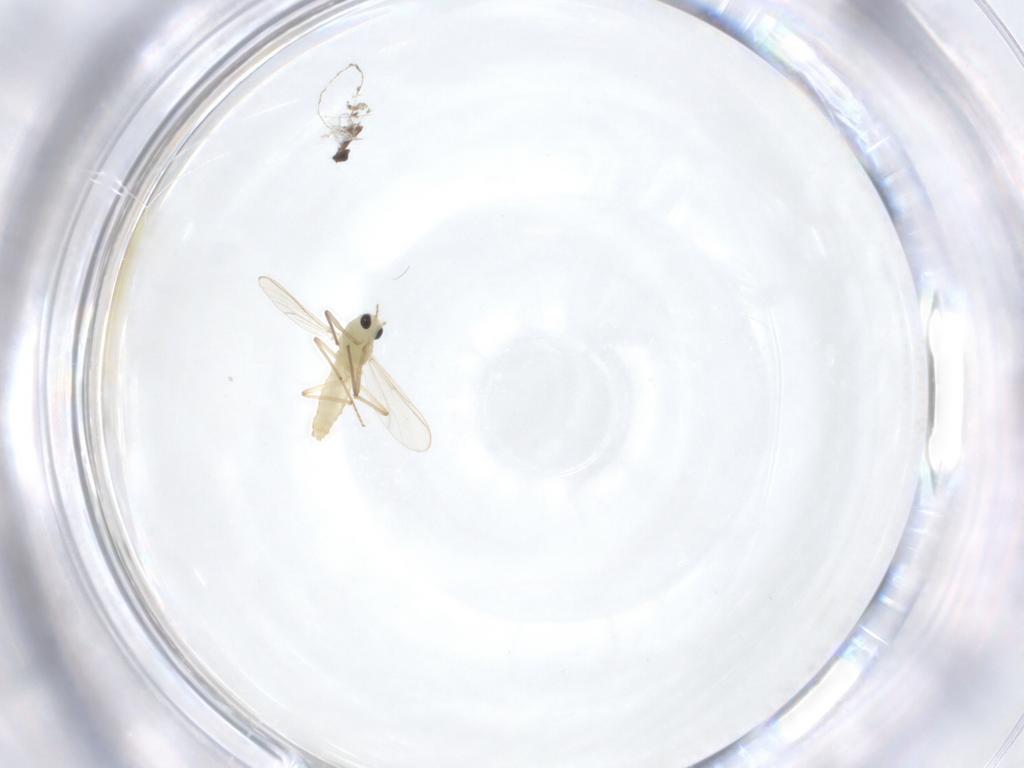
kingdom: Animalia
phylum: Arthropoda
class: Insecta
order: Diptera
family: Chironomidae
